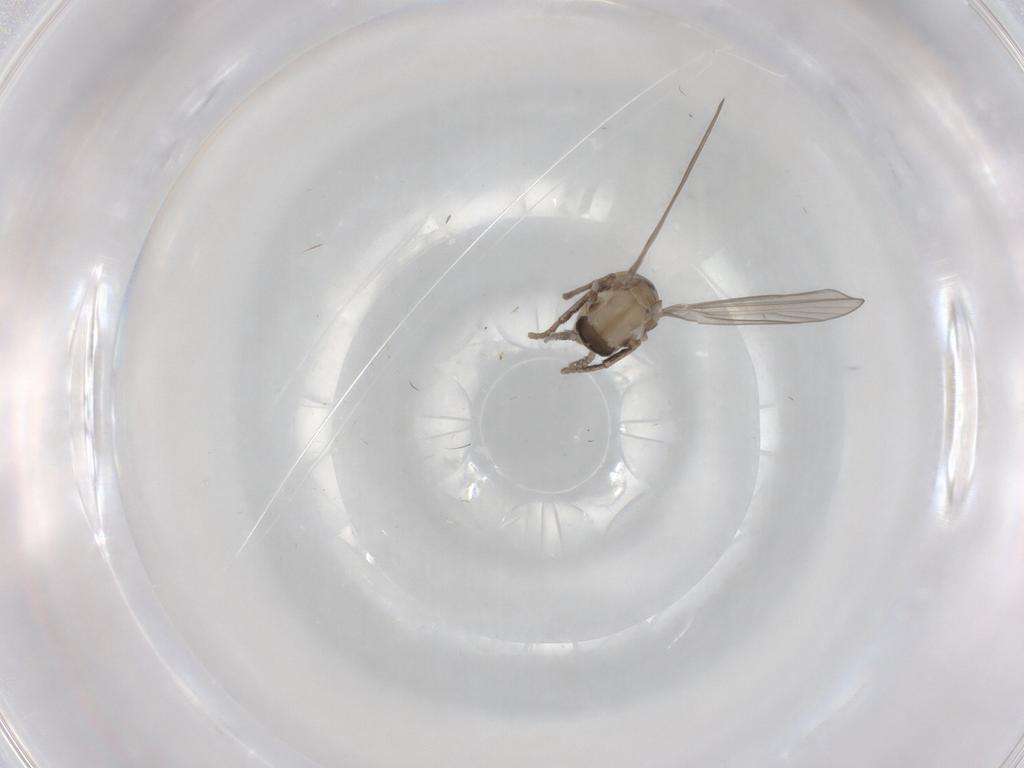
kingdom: Animalia
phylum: Arthropoda
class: Insecta
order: Diptera
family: Psychodidae
